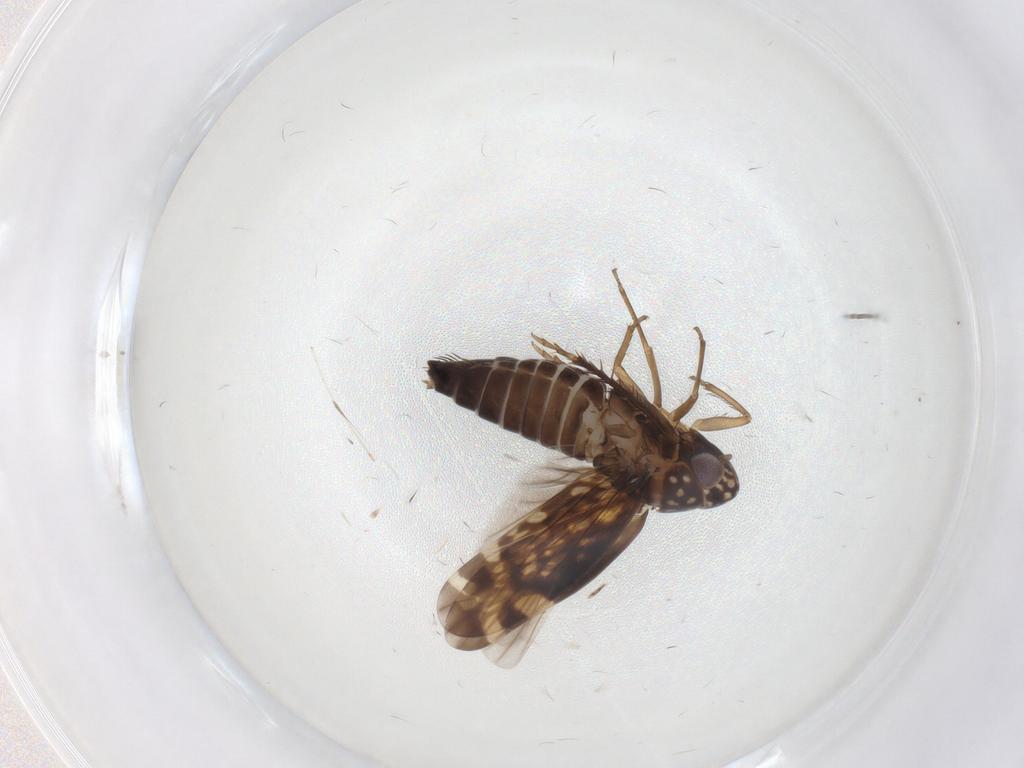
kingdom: Animalia
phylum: Arthropoda
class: Insecta
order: Hemiptera
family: Cicadellidae
